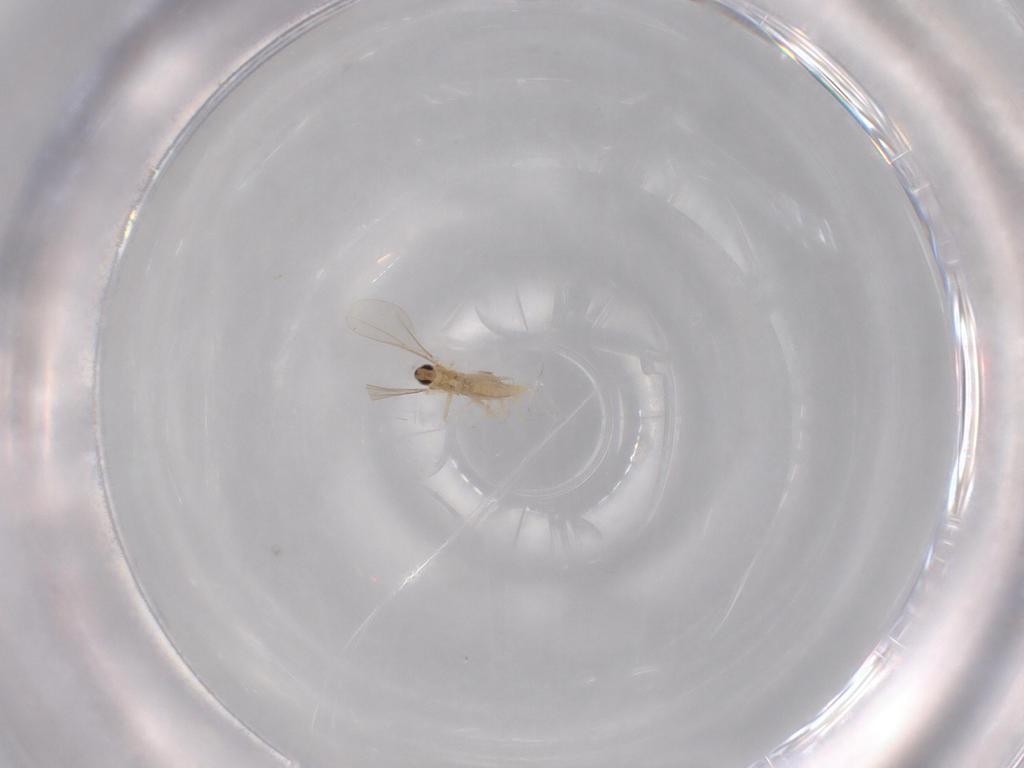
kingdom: Animalia
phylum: Arthropoda
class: Insecta
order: Diptera
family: Cecidomyiidae
